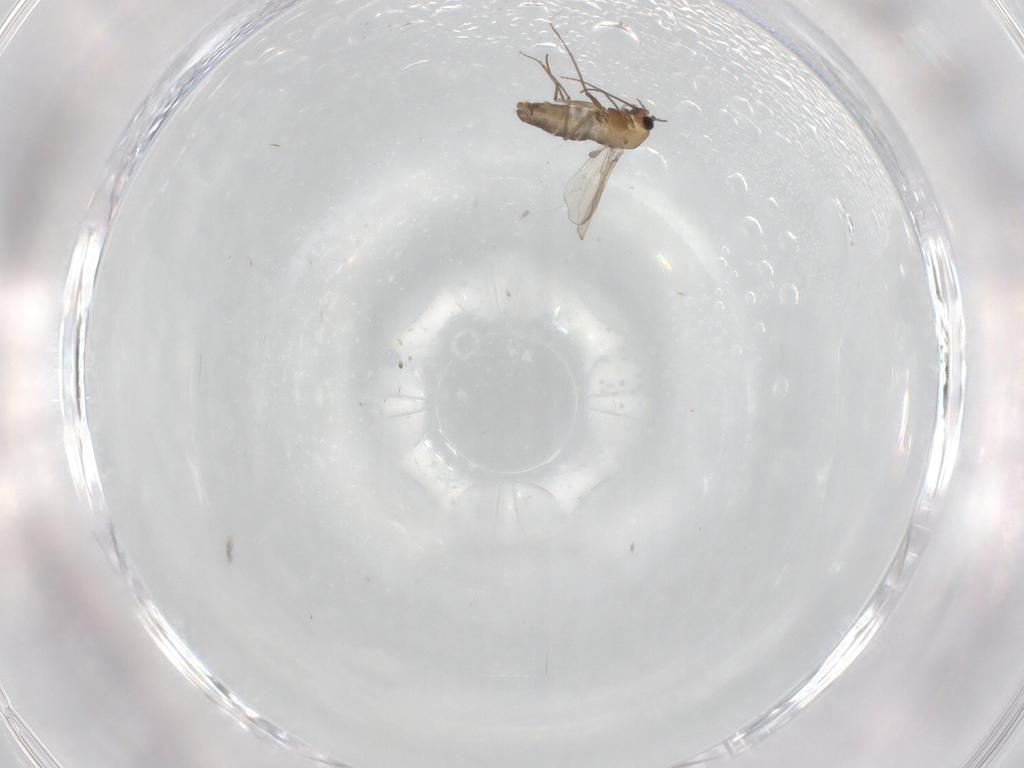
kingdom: Animalia
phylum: Arthropoda
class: Insecta
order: Diptera
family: Chironomidae
